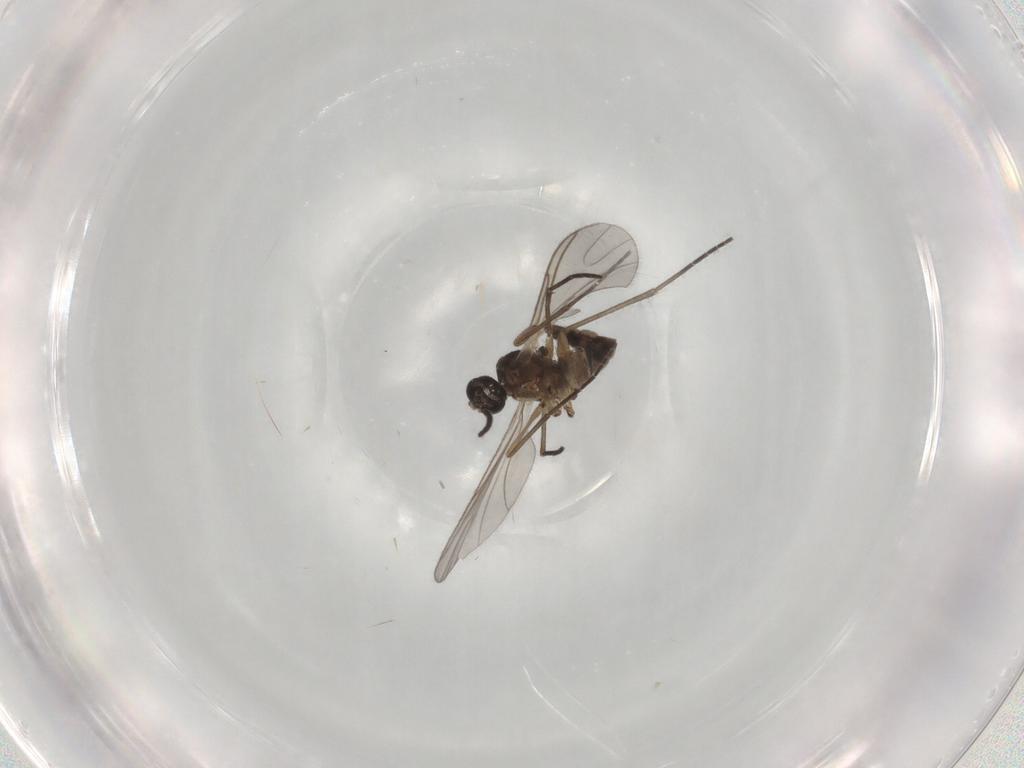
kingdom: Animalia
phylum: Arthropoda
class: Insecta
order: Diptera
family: Sciaridae
